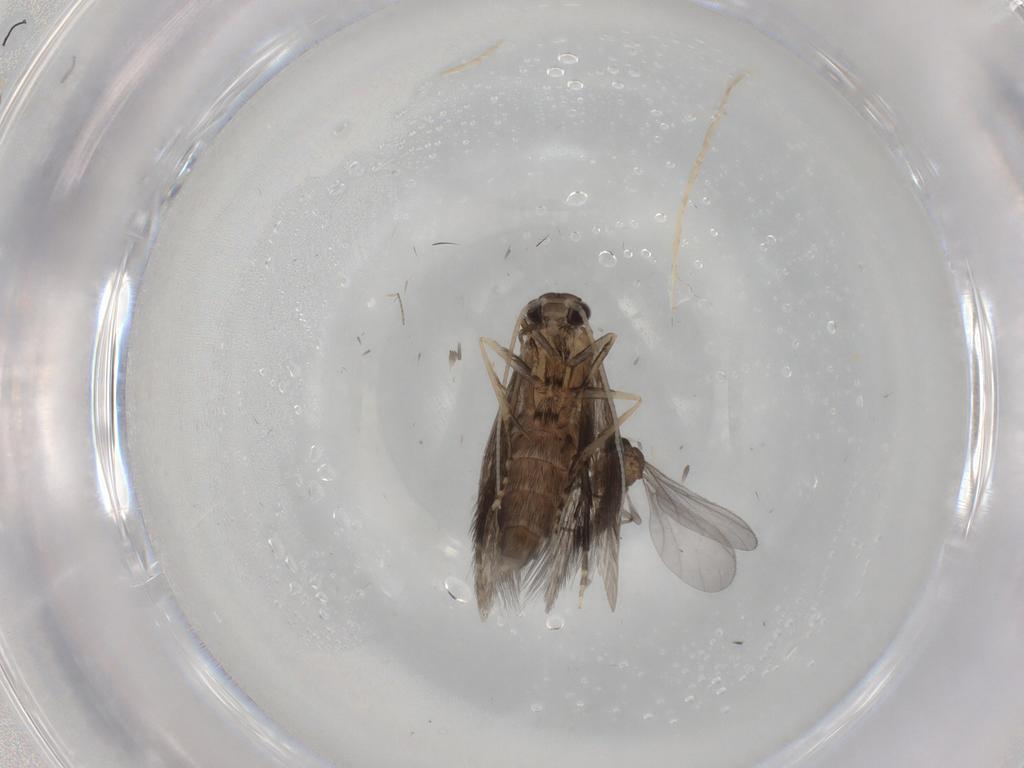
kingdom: Animalia
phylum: Arthropoda
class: Insecta
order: Diptera
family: Sciaridae
